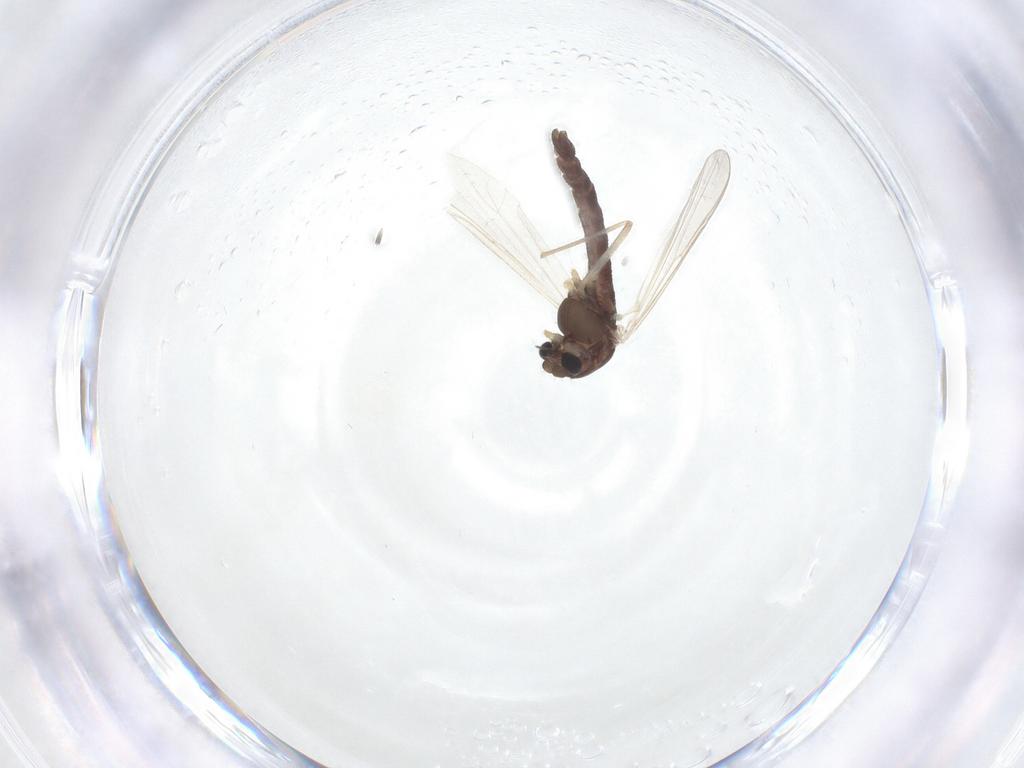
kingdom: Animalia
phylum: Arthropoda
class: Insecta
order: Diptera
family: Chironomidae
